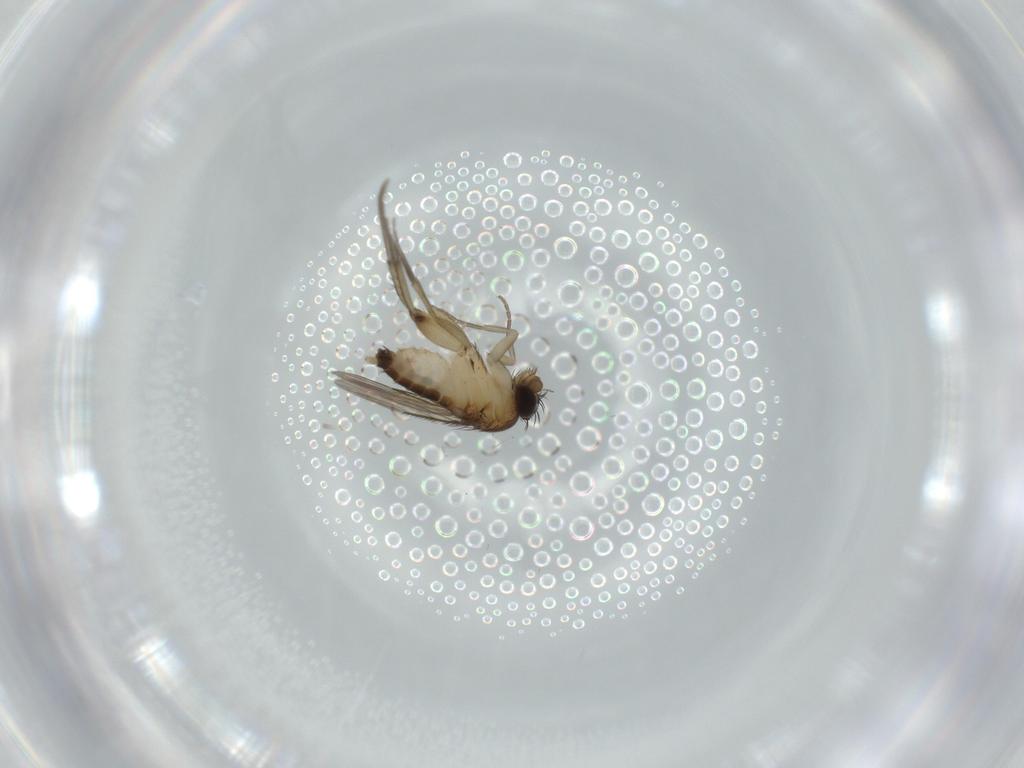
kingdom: Animalia
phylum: Arthropoda
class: Insecta
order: Diptera
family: Phoridae
